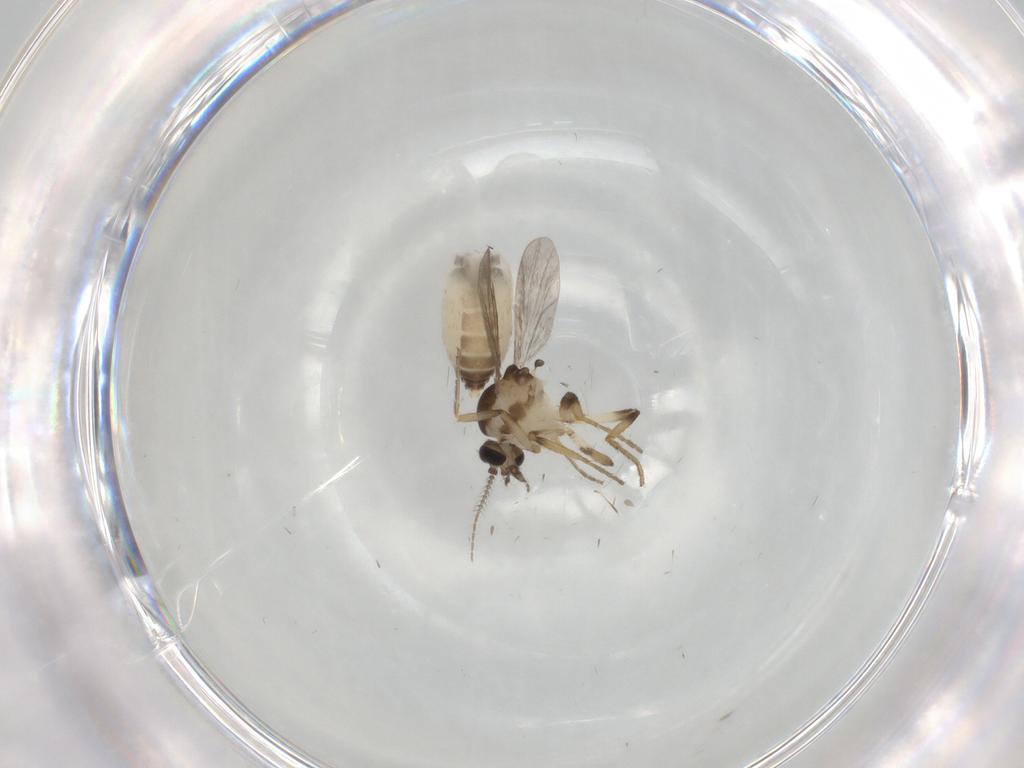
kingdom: Animalia
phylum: Arthropoda
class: Insecta
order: Diptera
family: Ceratopogonidae
